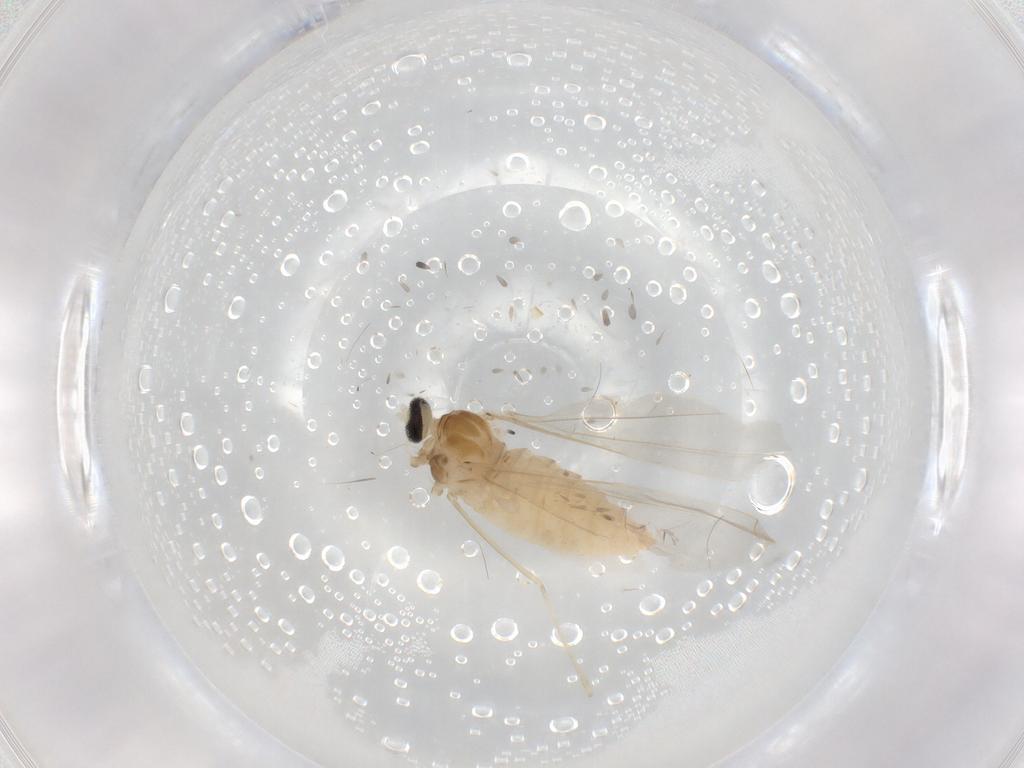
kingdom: Animalia
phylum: Arthropoda
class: Insecta
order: Diptera
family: Cecidomyiidae
